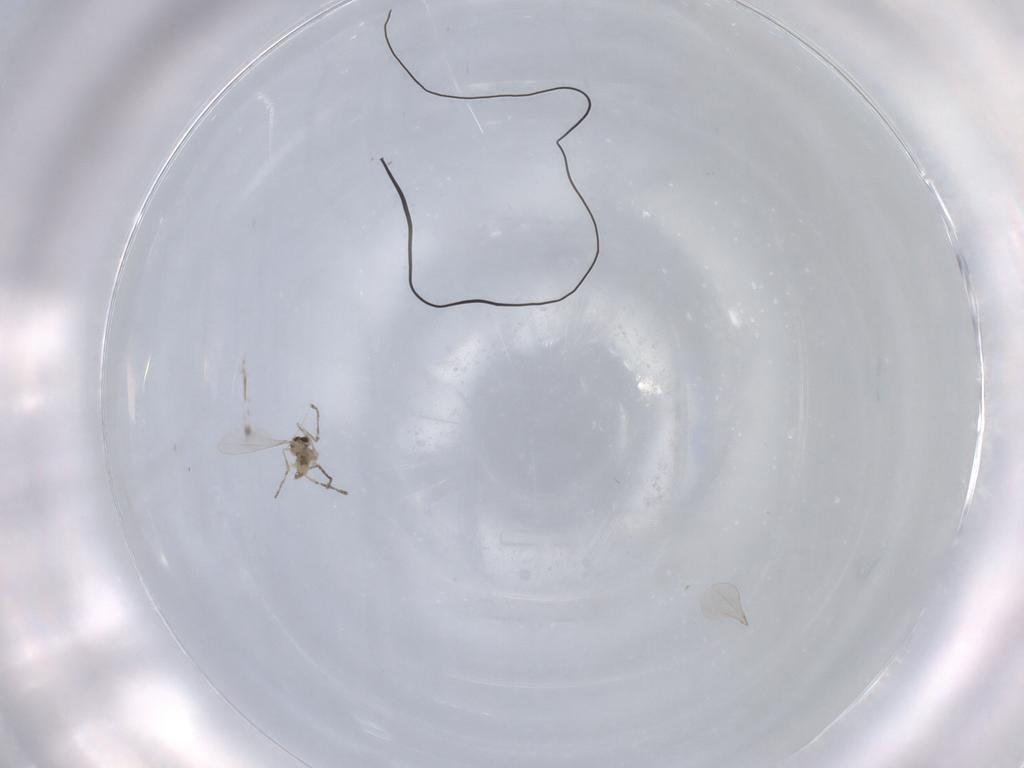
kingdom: Animalia
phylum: Arthropoda
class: Insecta
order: Diptera
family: Cecidomyiidae
